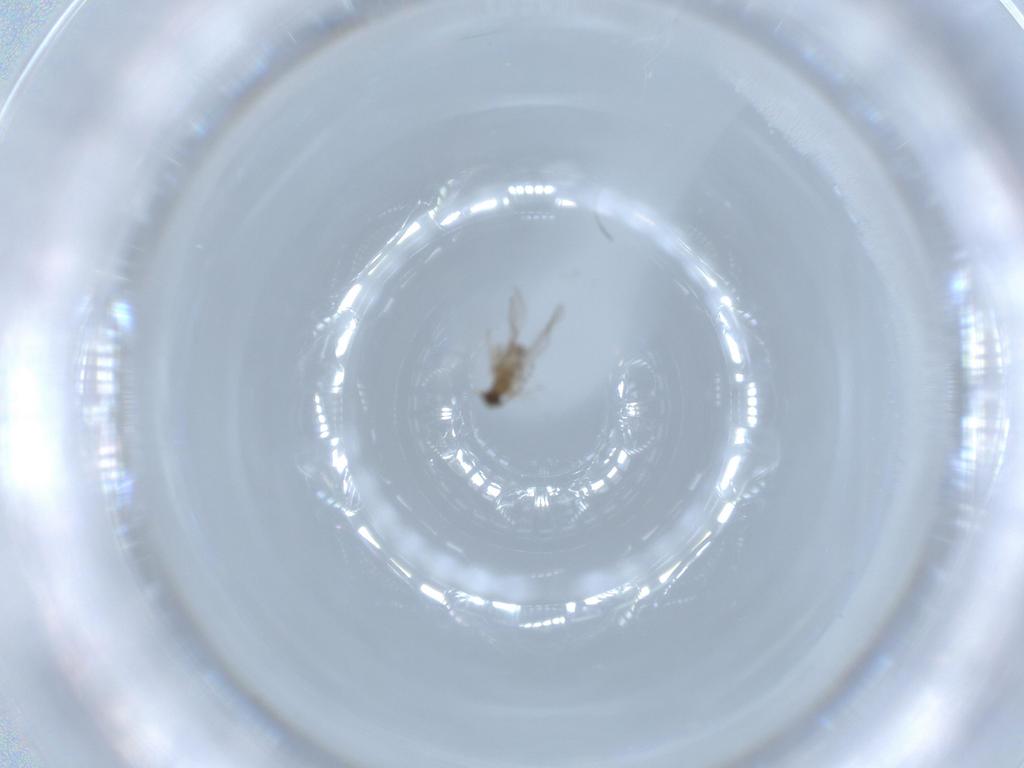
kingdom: Animalia
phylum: Arthropoda
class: Insecta
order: Diptera
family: Cecidomyiidae
